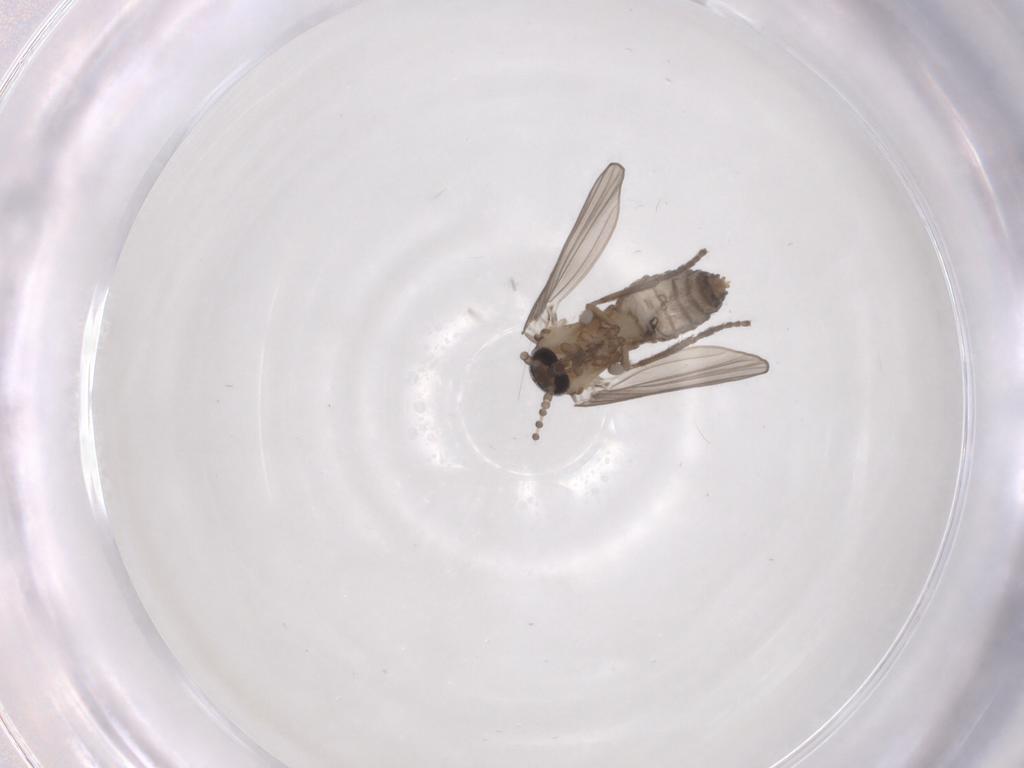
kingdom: Animalia
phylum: Arthropoda
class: Insecta
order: Diptera
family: Psychodidae
